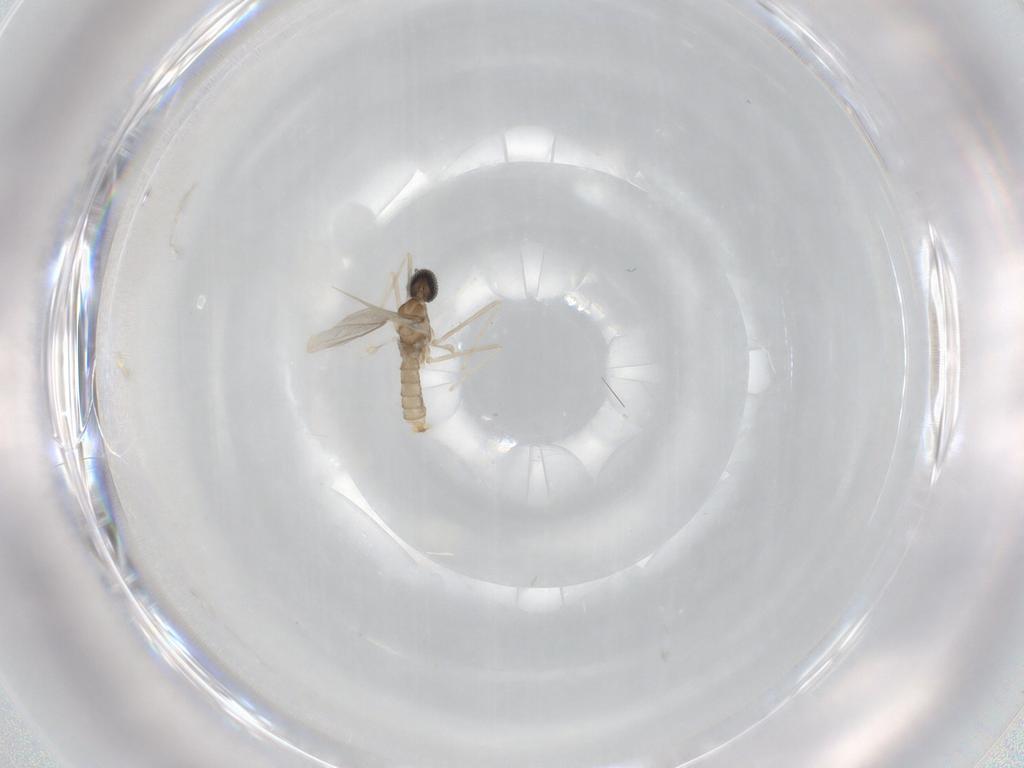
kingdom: Animalia
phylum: Arthropoda
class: Insecta
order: Diptera
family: Cecidomyiidae
